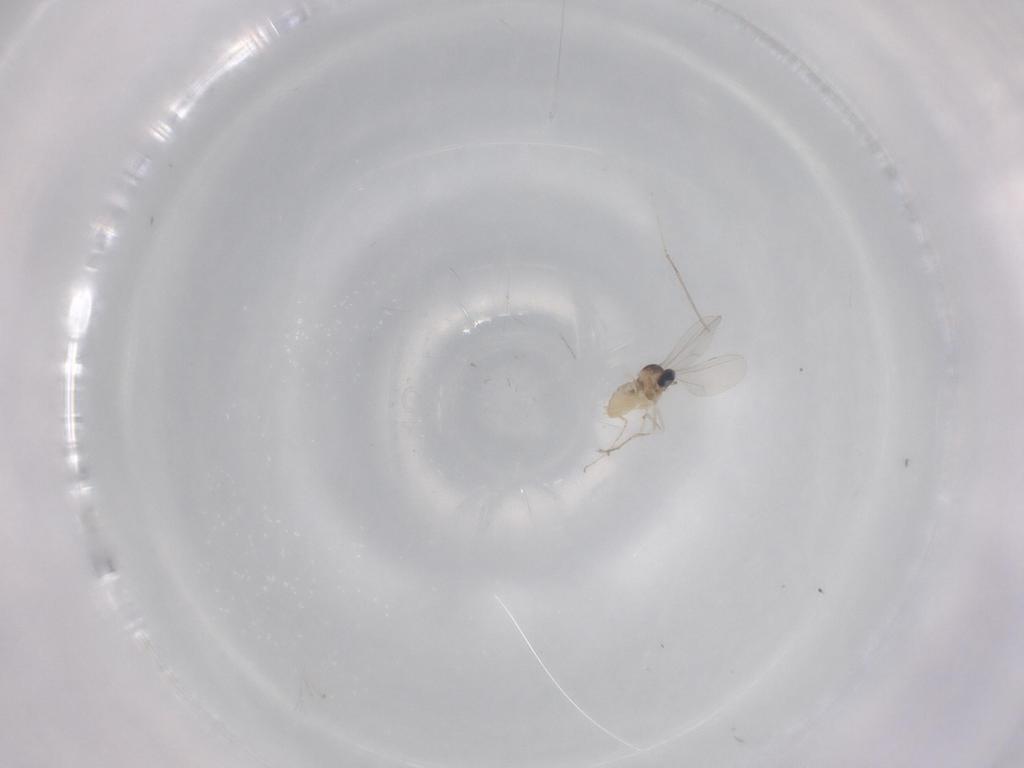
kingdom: Animalia
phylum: Arthropoda
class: Insecta
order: Diptera
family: Cecidomyiidae
